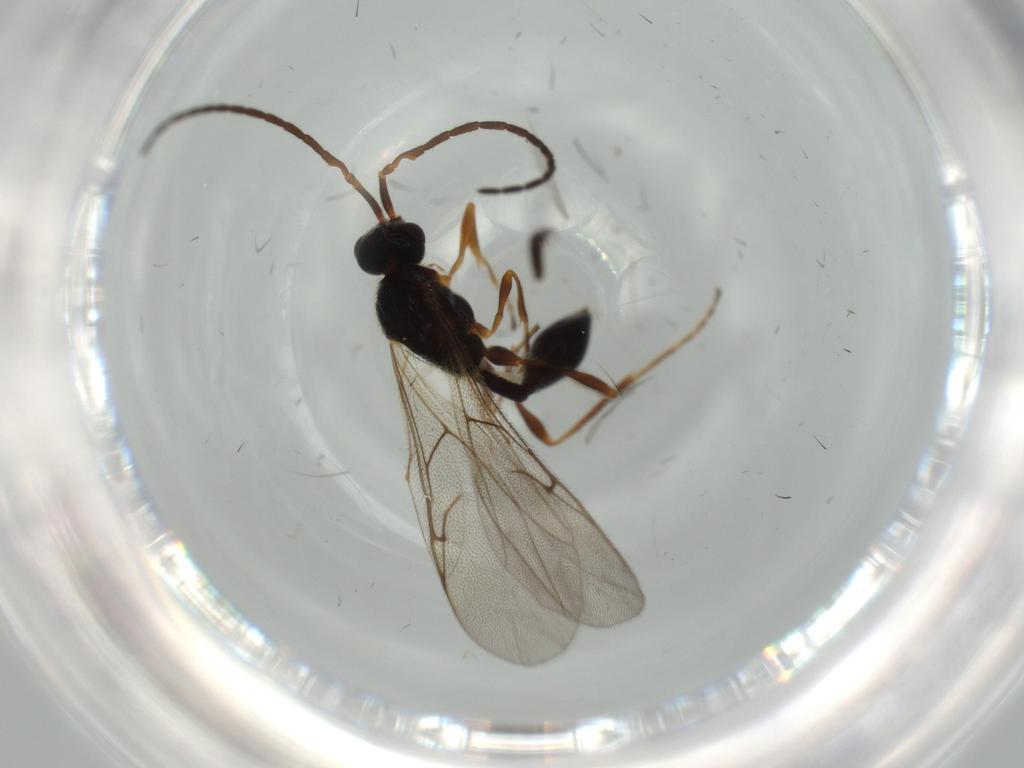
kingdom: Animalia
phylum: Arthropoda
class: Insecta
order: Hymenoptera
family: Ichneumonidae
